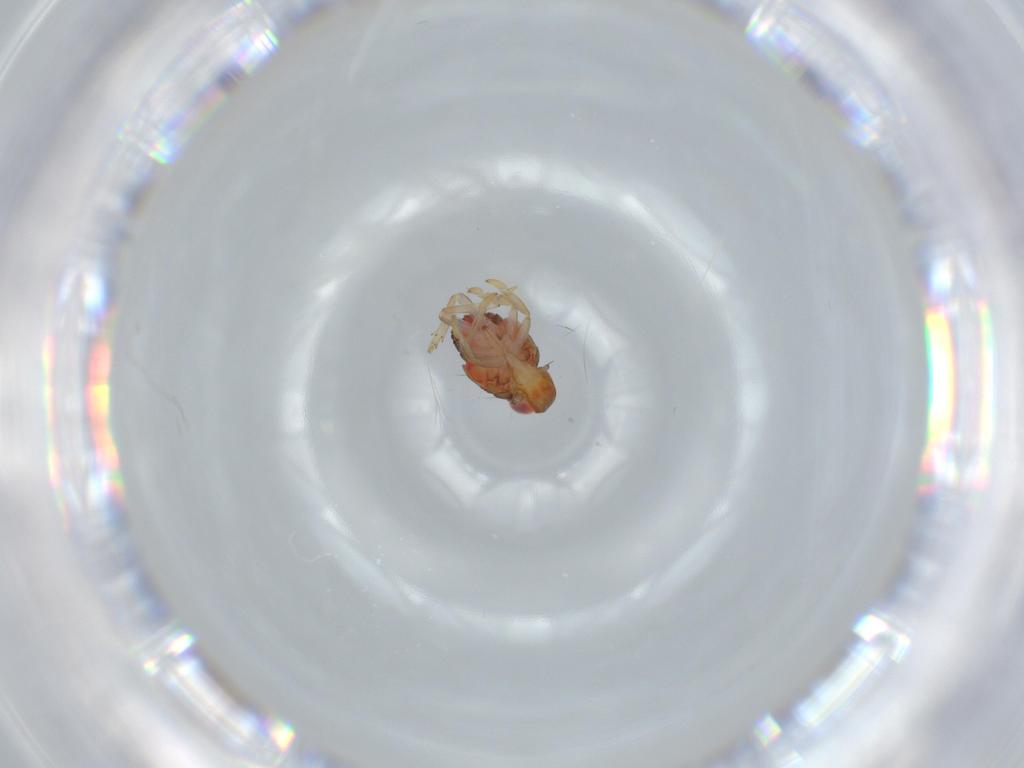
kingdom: Animalia
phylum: Arthropoda
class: Insecta
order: Hemiptera
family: Issidae
